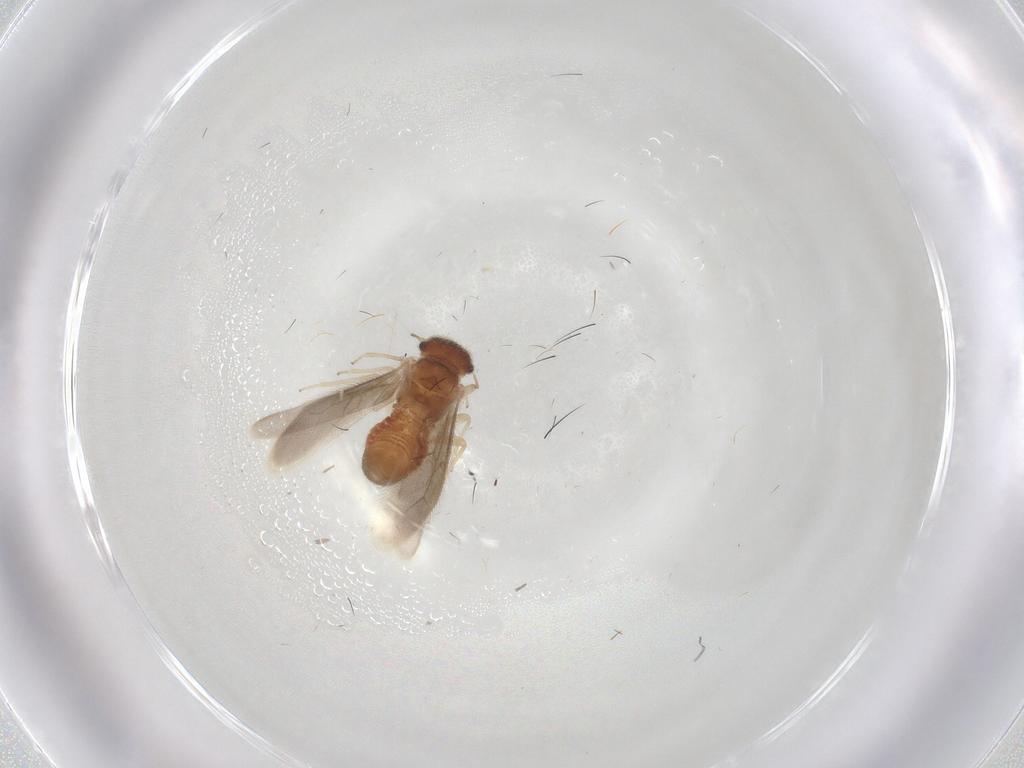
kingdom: Animalia
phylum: Arthropoda
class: Insecta
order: Psocodea
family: Archipsocidae
